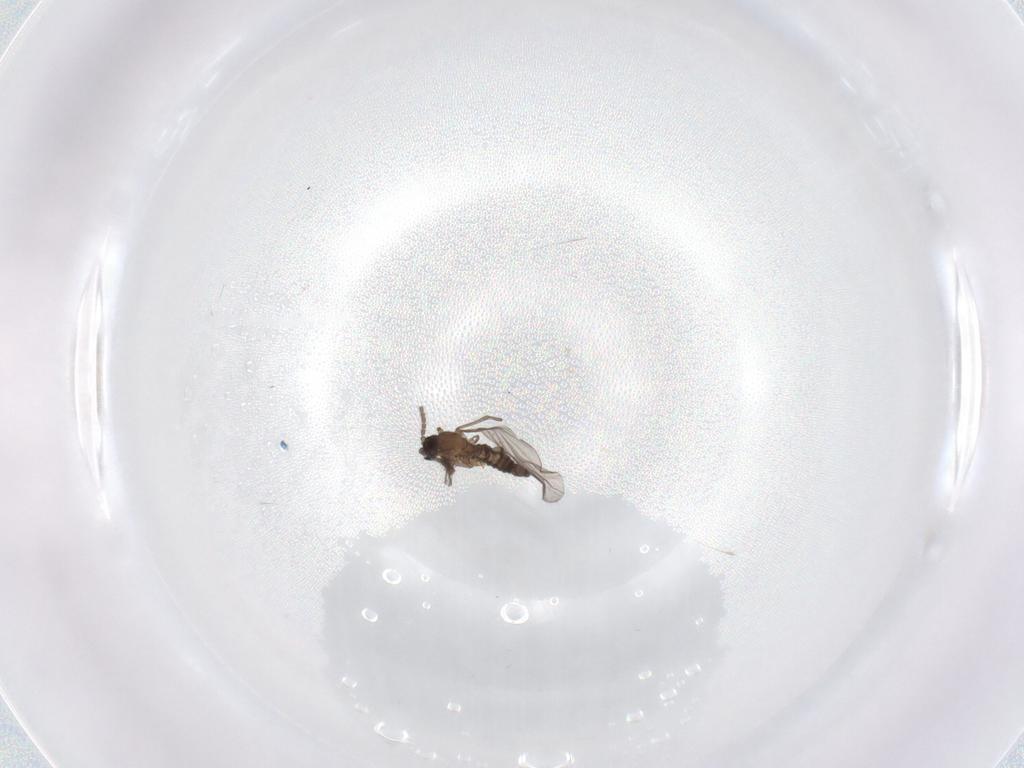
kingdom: Animalia
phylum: Arthropoda
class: Insecta
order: Diptera
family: Sciaridae
